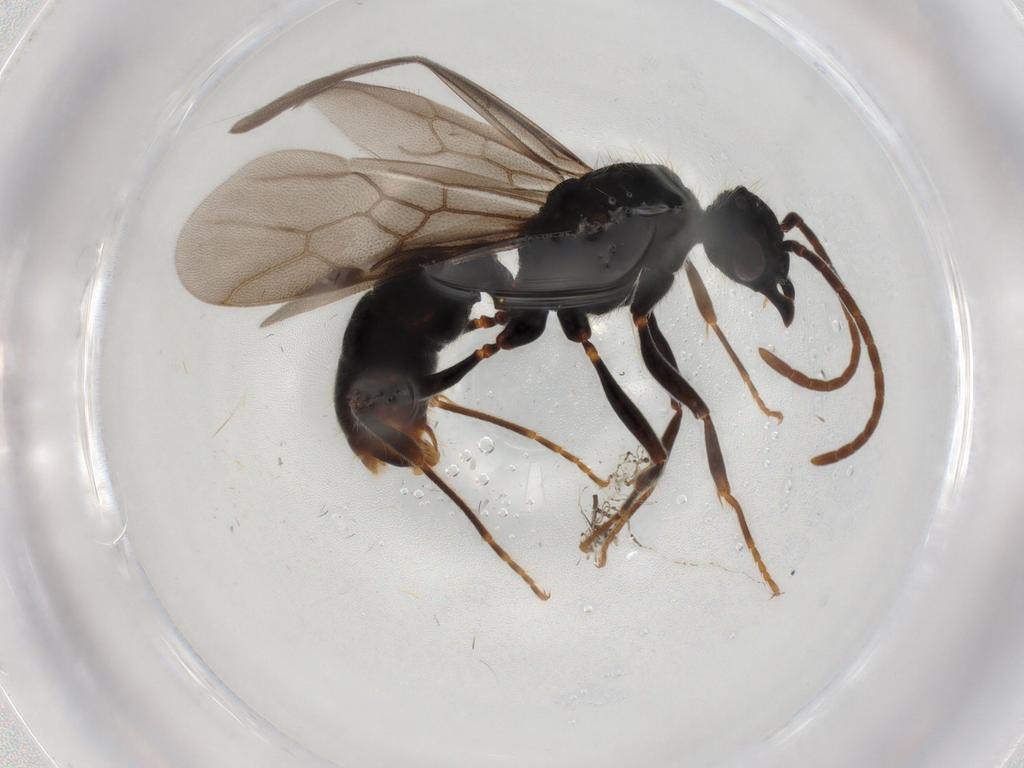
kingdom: Animalia
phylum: Arthropoda
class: Insecta
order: Hymenoptera
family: Formicidae
